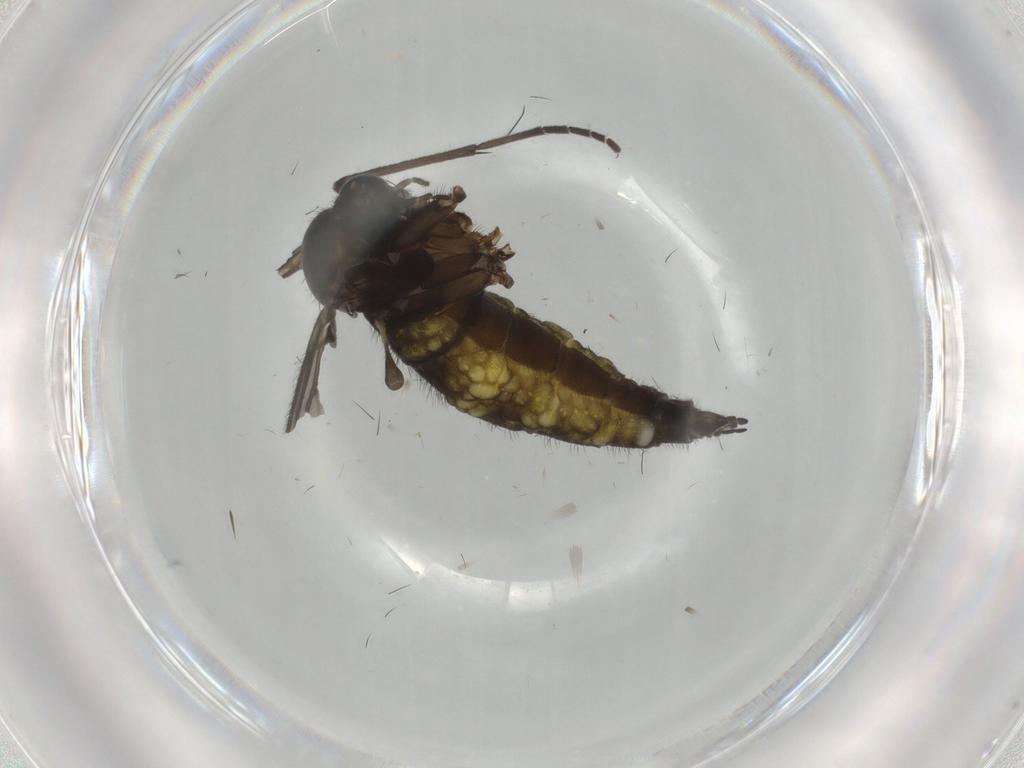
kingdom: Animalia
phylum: Arthropoda
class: Insecta
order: Diptera
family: Sciaridae
